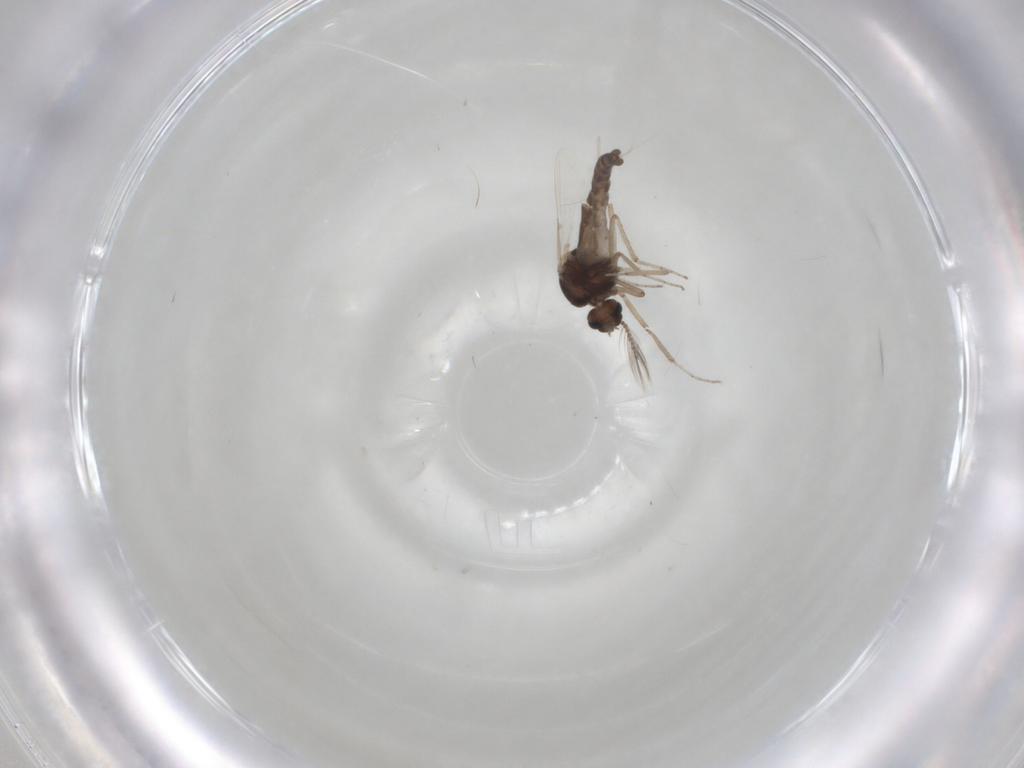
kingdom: Animalia
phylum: Arthropoda
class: Insecta
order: Diptera
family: Ceratopogonidae
